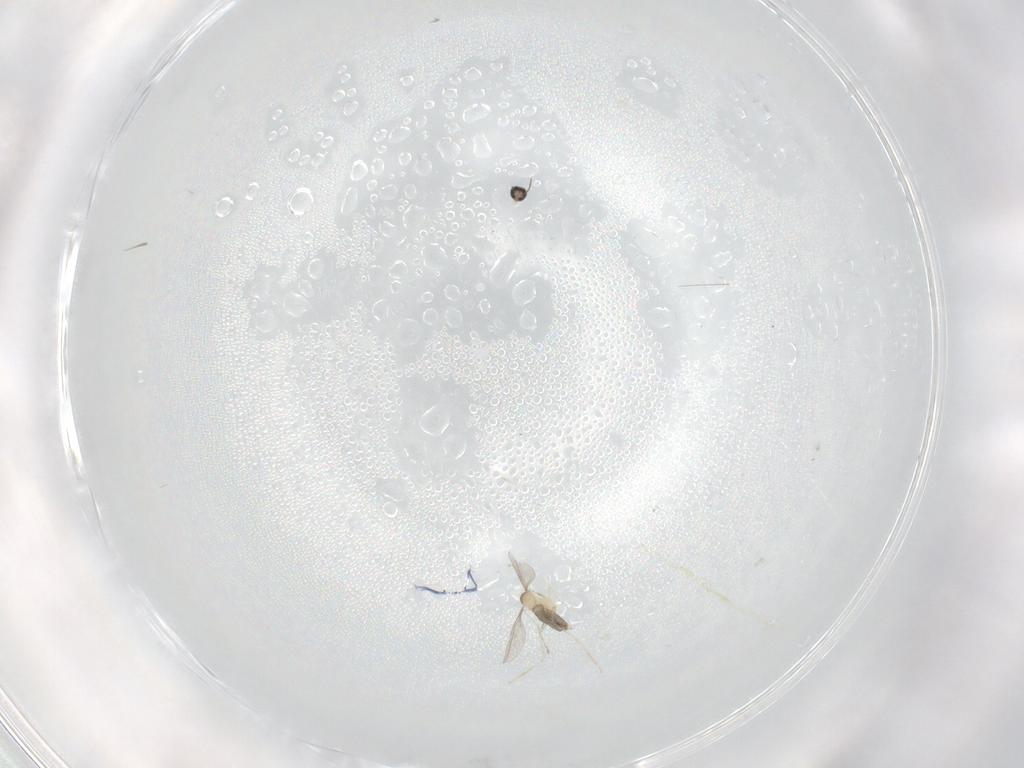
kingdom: Animalia
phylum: Arthropoda
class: Insecta
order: Diptera
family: Cecidomyiidae
